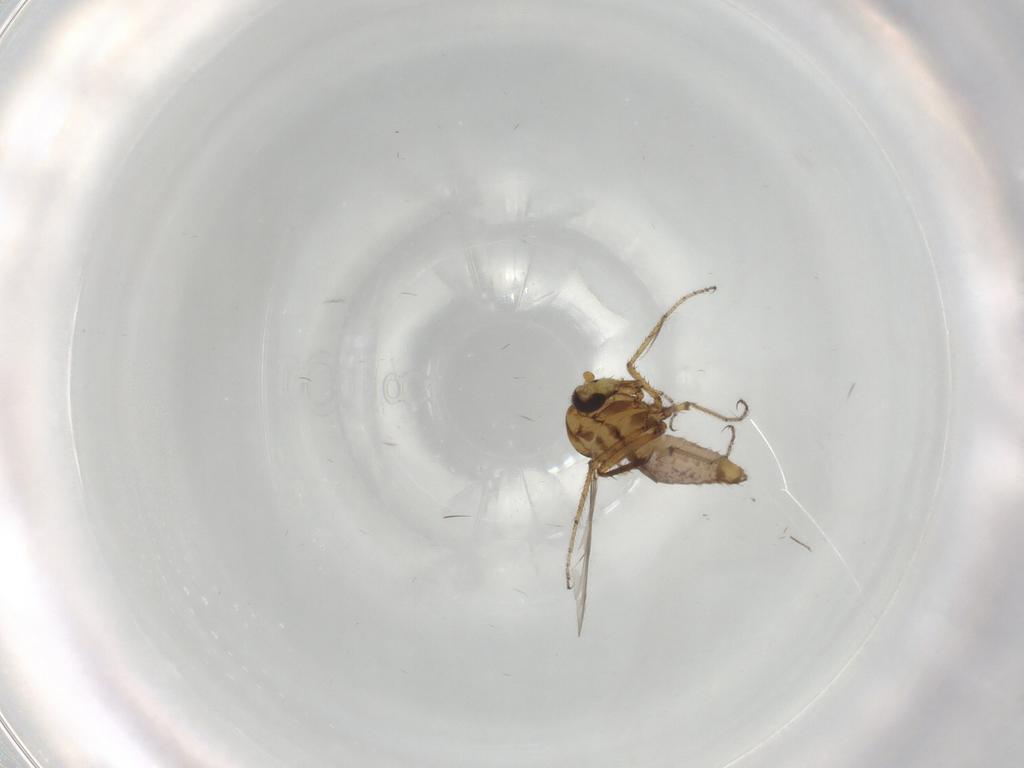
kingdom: Animalia
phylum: Arthropoda
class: Insecta
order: Diptera
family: Ceratopogonidae
